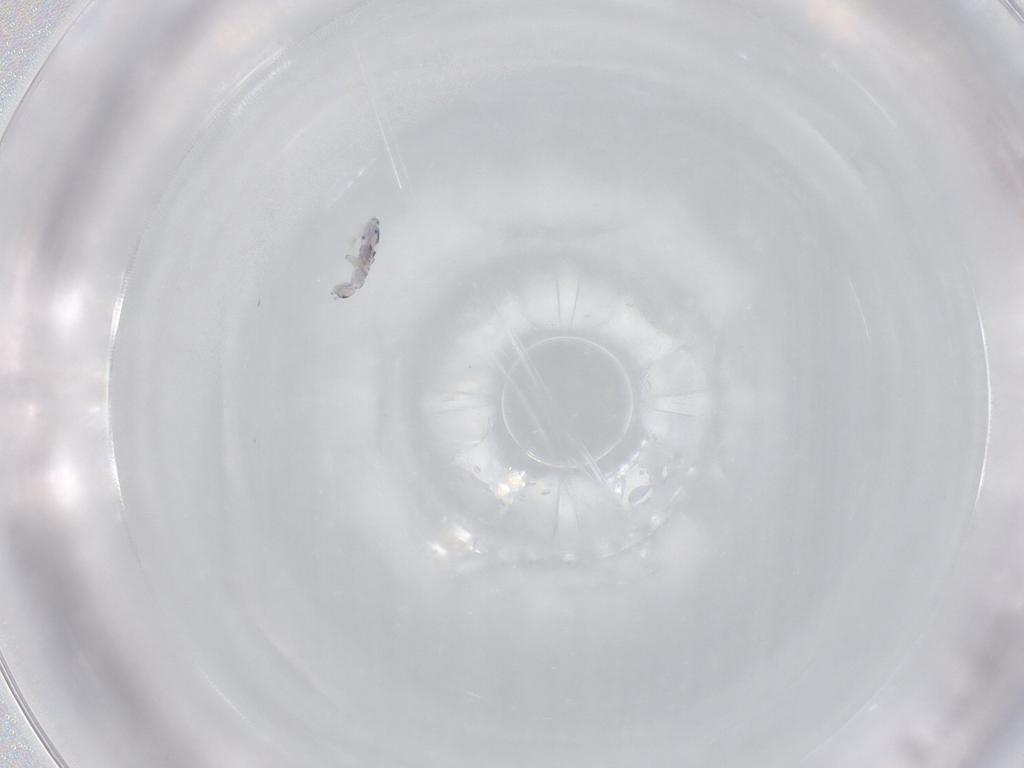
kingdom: Animalia
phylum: Arthropoda
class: Collembola
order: Entomobryomorpha
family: Entomobryidae
